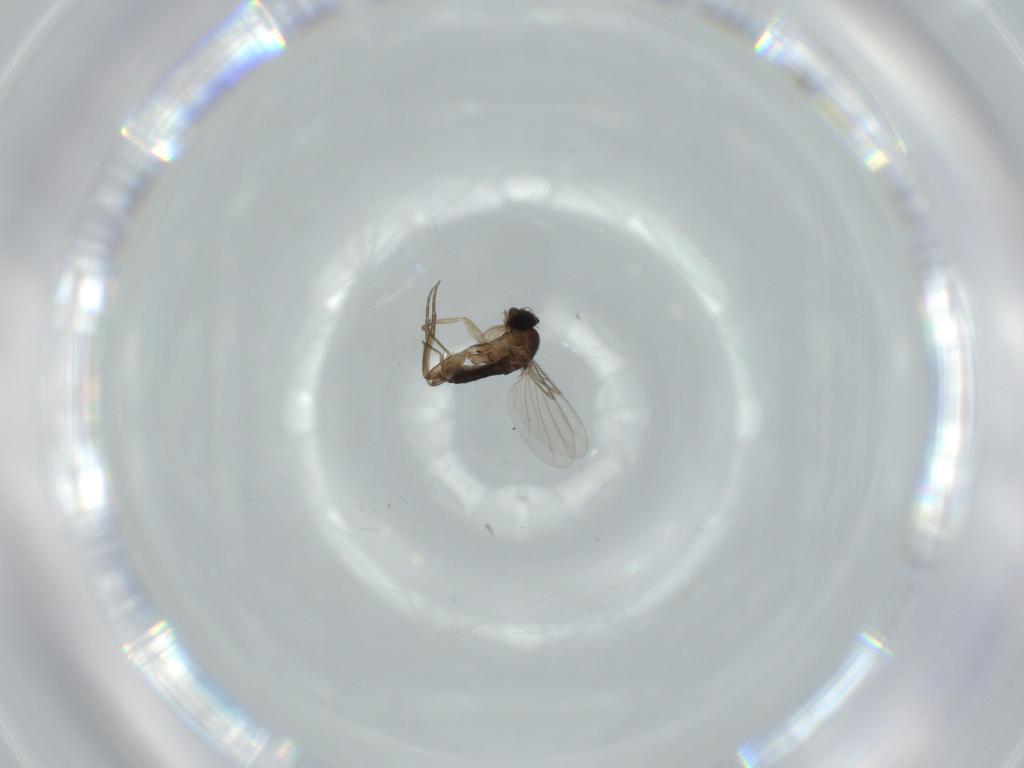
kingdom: Animalia
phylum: Arthropoda
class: Insecta
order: Diptera
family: Phoridae
